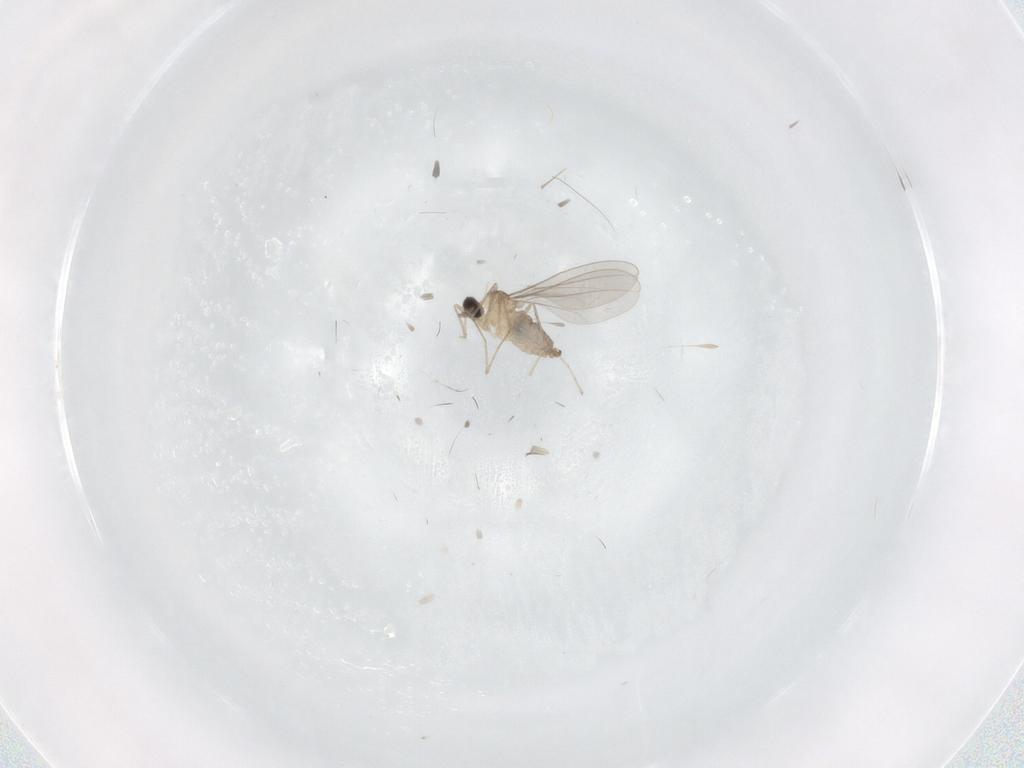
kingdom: Animalia
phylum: Arthropoda
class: Insecta
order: Diptera
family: Cecidomyiidae
